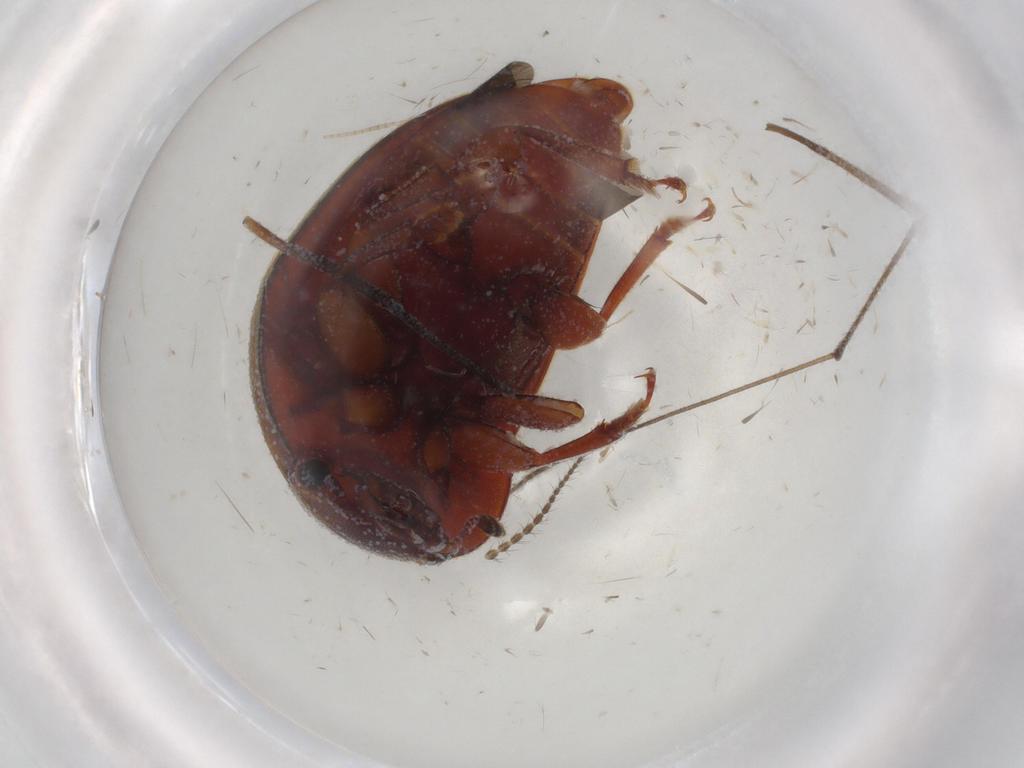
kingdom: Animalia
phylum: Arthropoda
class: Insecta
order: Coleoptera
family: Nitidulidae
